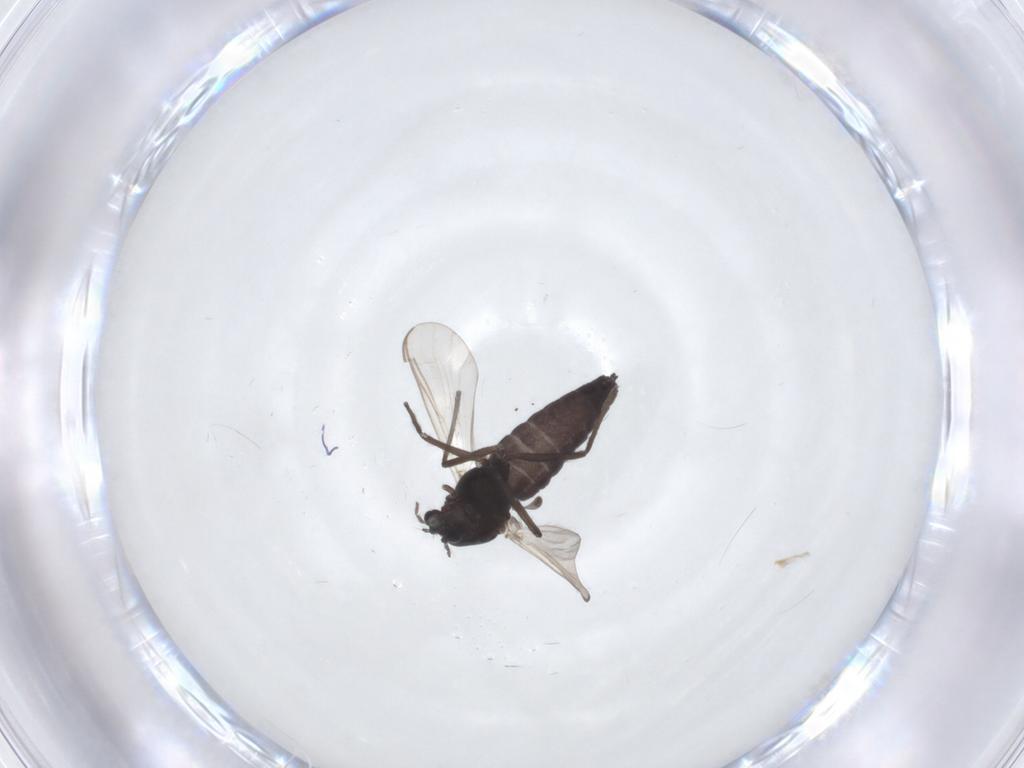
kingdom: Animalia
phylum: Arthropoda
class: Insecta
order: Diptera
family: Chironomidae
